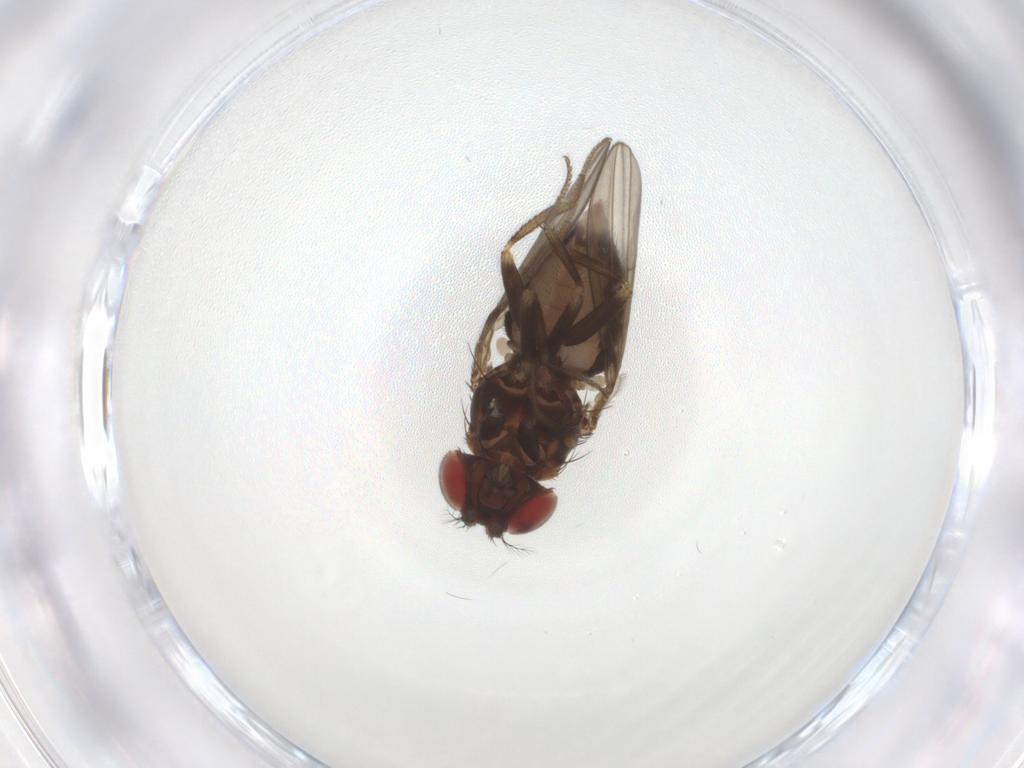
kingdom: Animalia
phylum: Arthropoda
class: Insecta
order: Diptera
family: Drosophilidae
